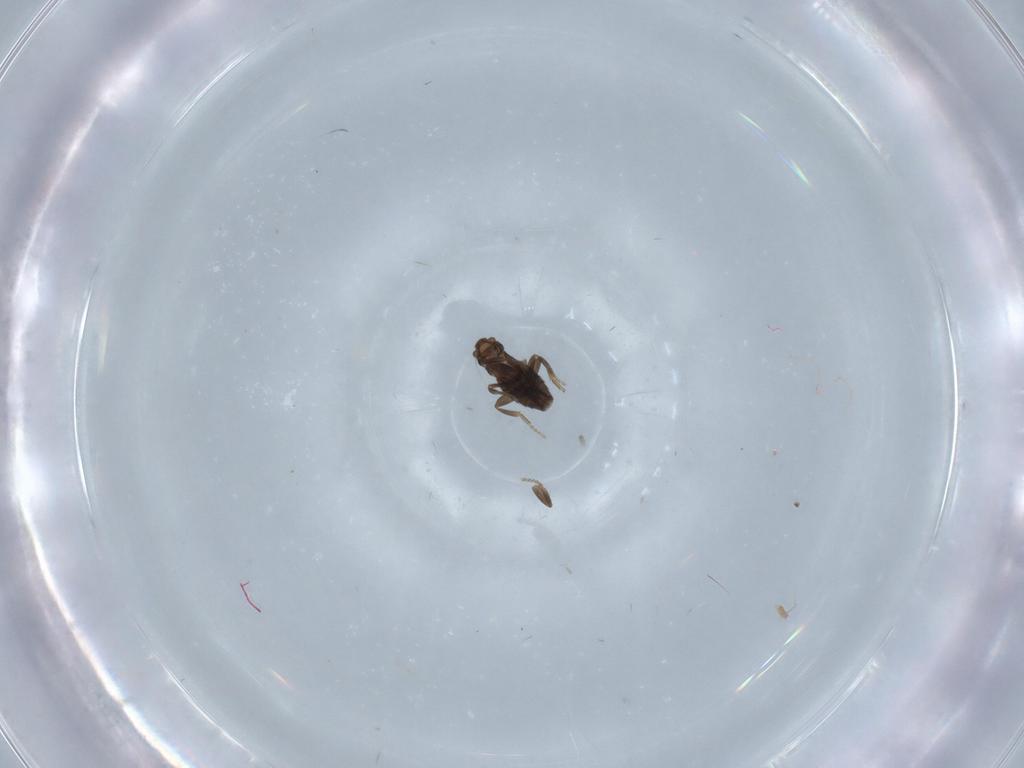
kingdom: Animalia
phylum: Arthropoda
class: Insecta
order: Diptera
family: Phoridae
